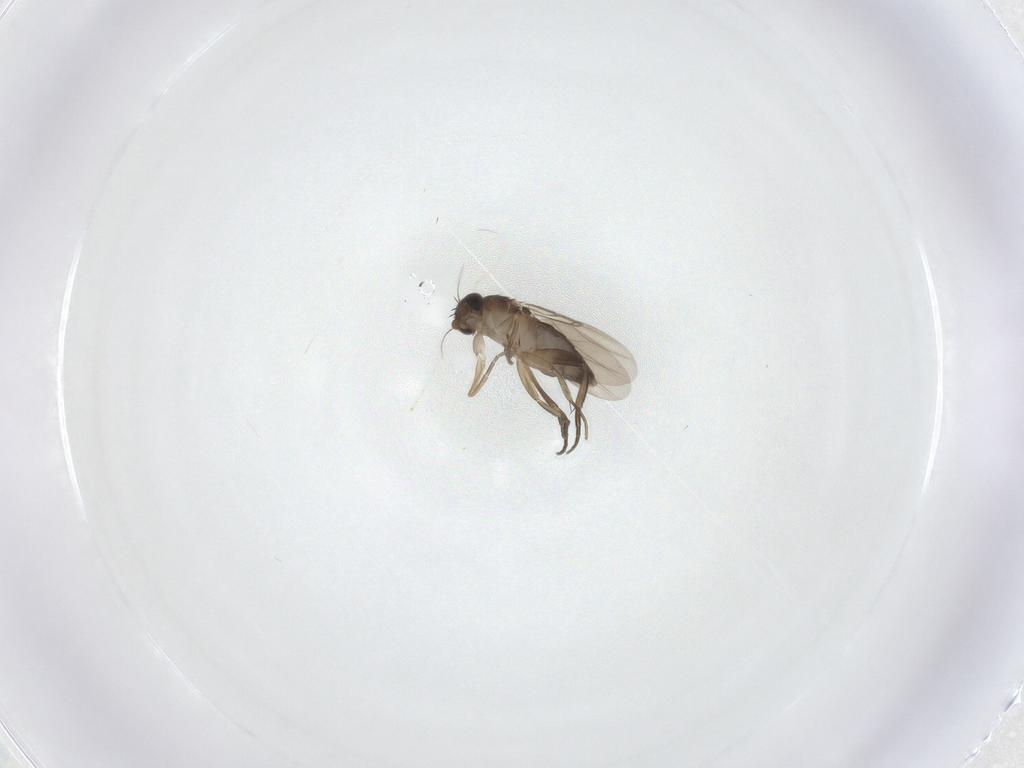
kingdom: Animalia
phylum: Arthropoda
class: Insecta
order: Diptera
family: Phoridae
